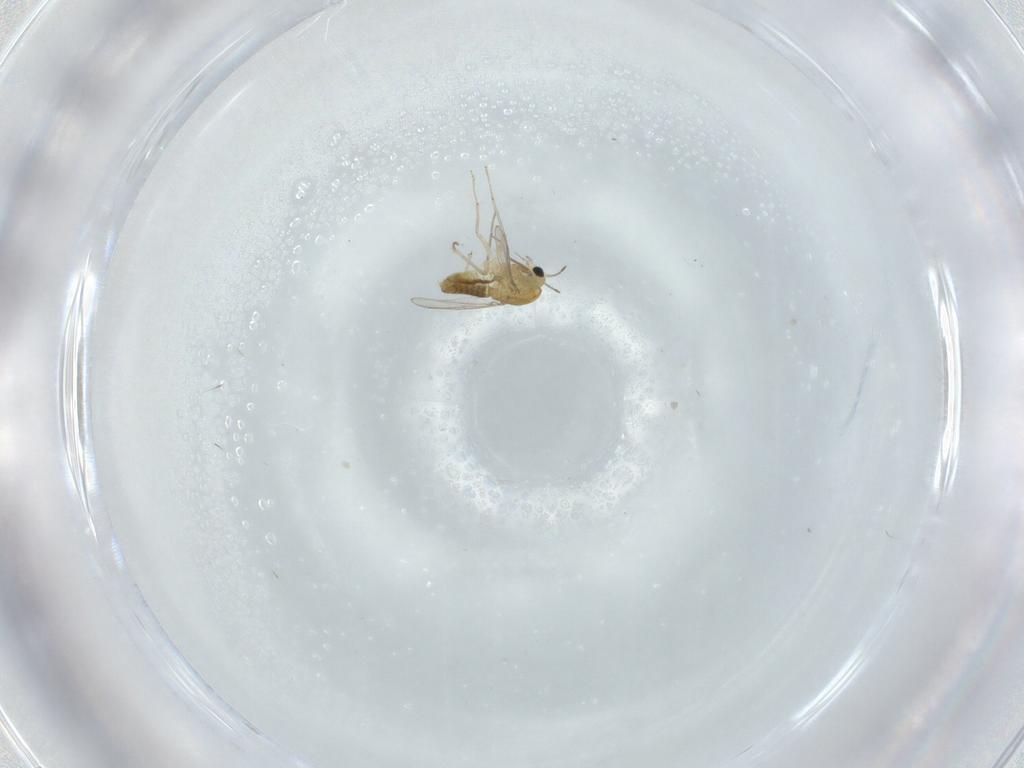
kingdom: Animalia
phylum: Arthropoda
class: Insecta
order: Diptera
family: Chironomidae
